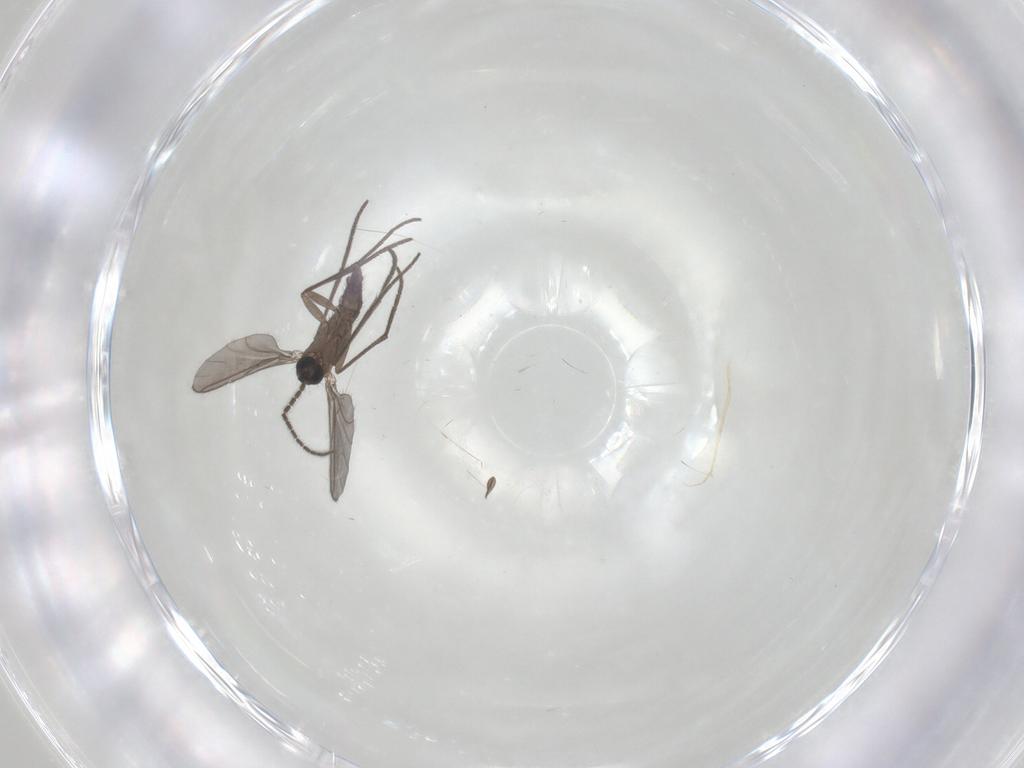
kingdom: Animalia
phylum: Arthropoda
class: Insecta
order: Diptera
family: Sciaridae
